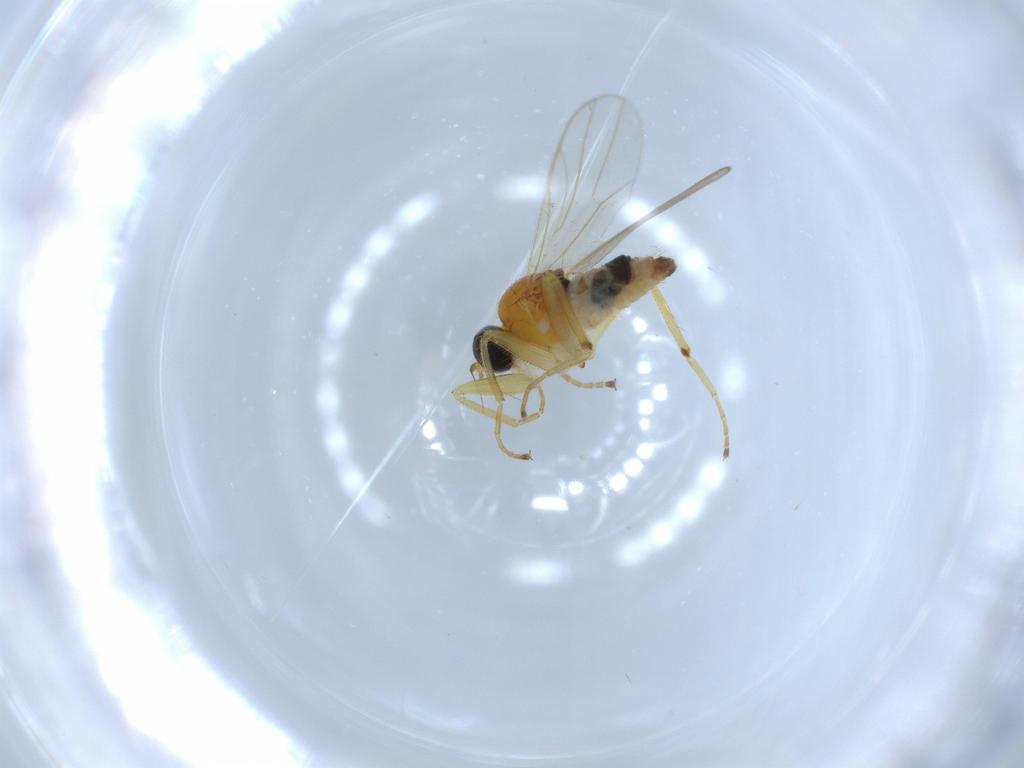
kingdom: Animalia
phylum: Arthropoda
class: Insecta
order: Diptera
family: Hybotidae
